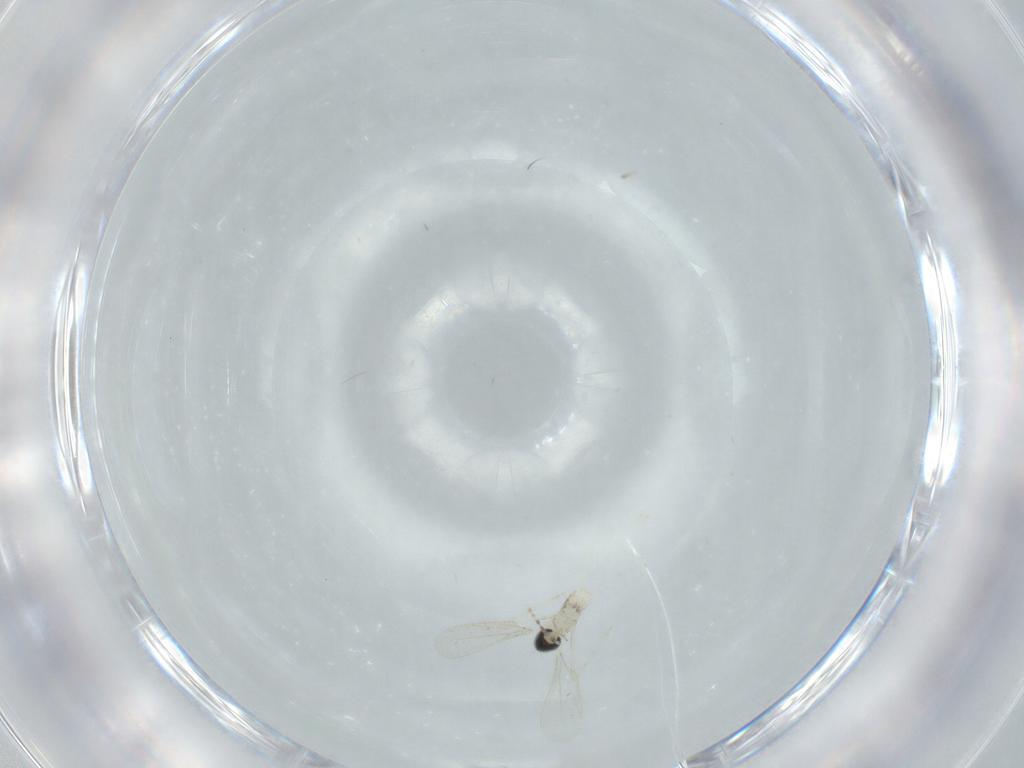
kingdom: Animalia
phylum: Arthropoda
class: Insecta
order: Diptera
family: Cecidomyiidae
